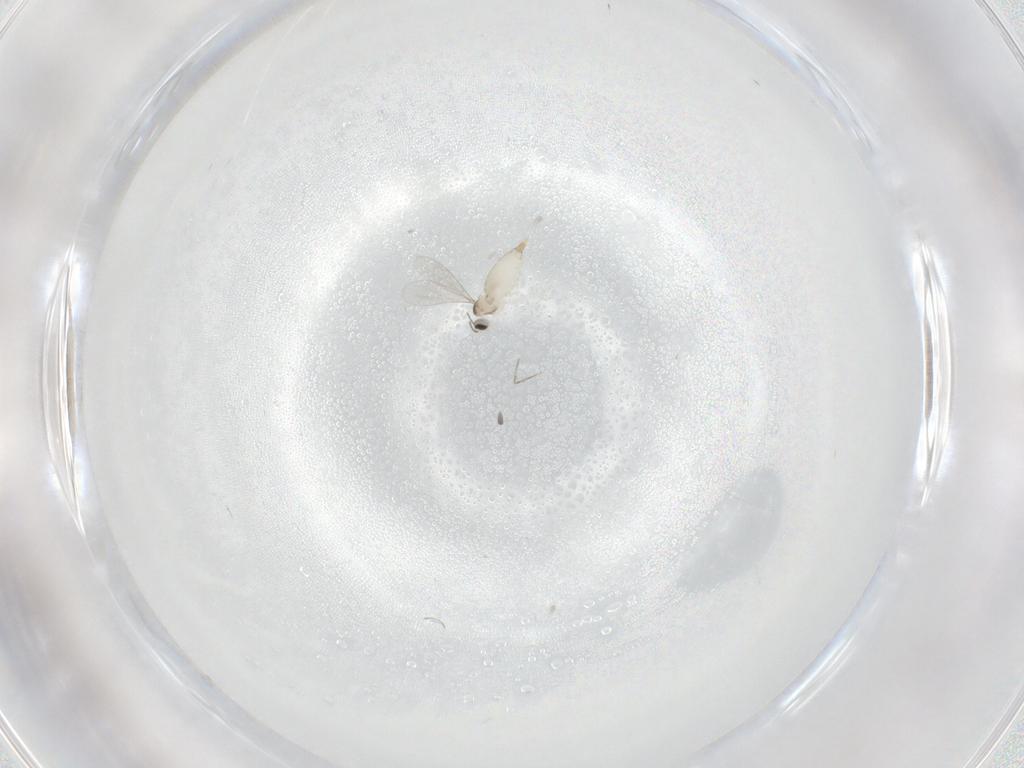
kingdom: Animalia
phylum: Arthropoda
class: Insecta
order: Diptera
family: Cecidomyiidae
